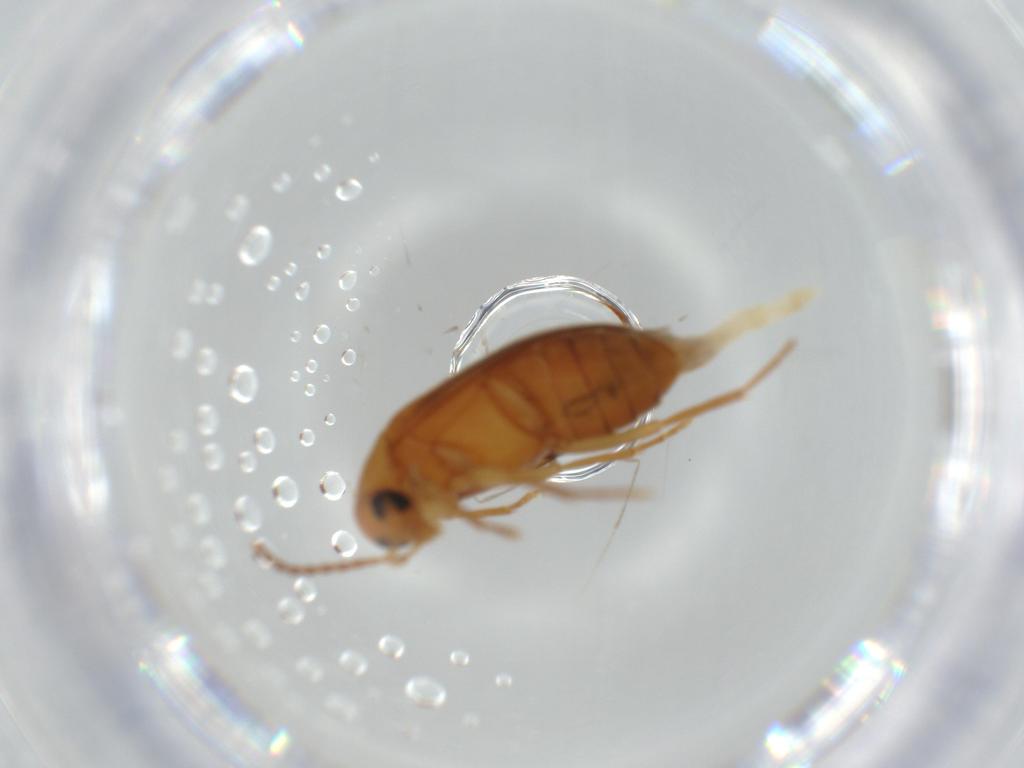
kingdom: Animalia
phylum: Arthropoda
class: Insecta
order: Coleoptera
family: Scraptiidae
